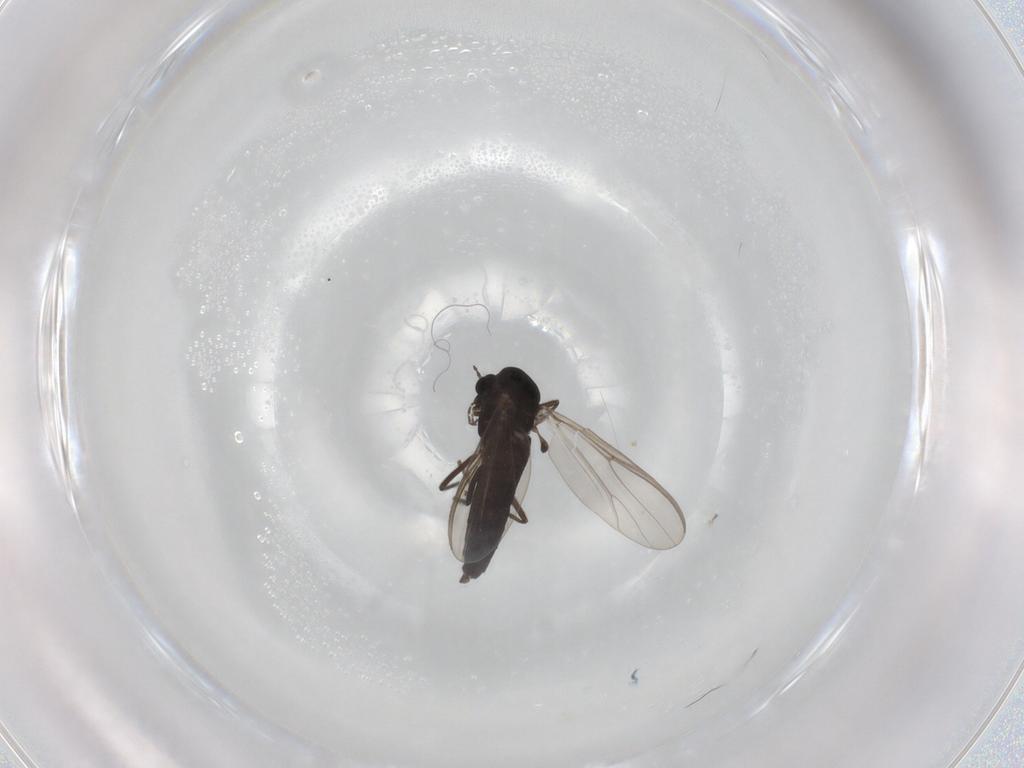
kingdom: Animalia
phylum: Arthropoda
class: Insecta
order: Diptera
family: Chironomidae
